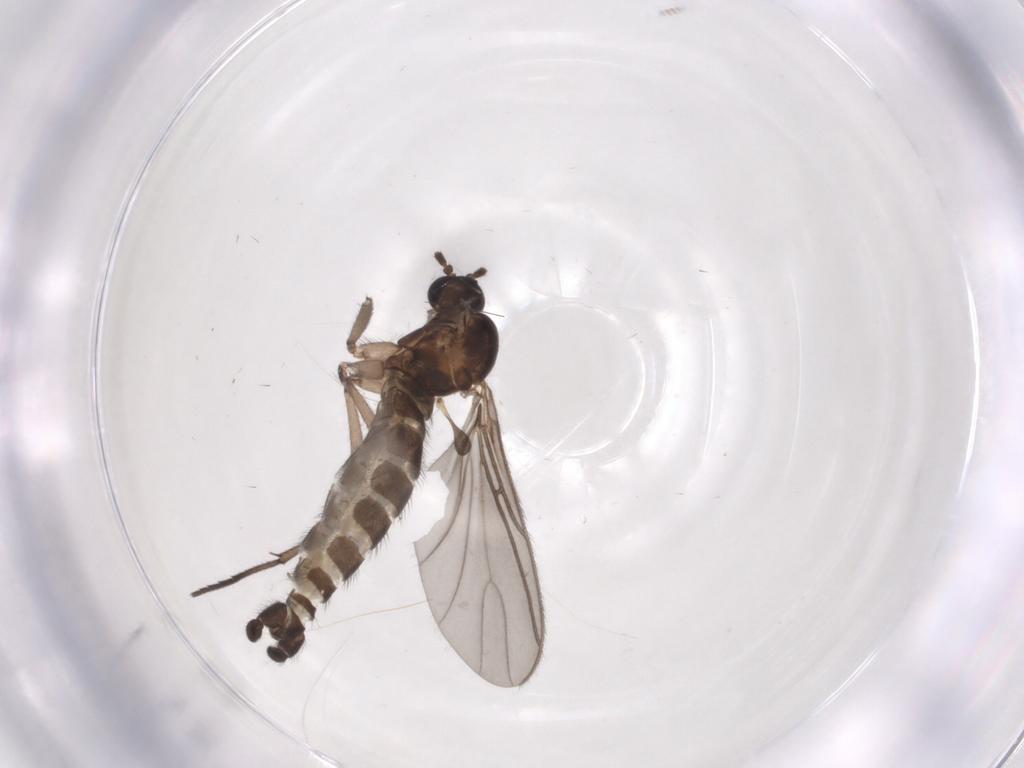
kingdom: Animalia
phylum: Arthropoda
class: Insecta
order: Diptera
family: Sciaridae
